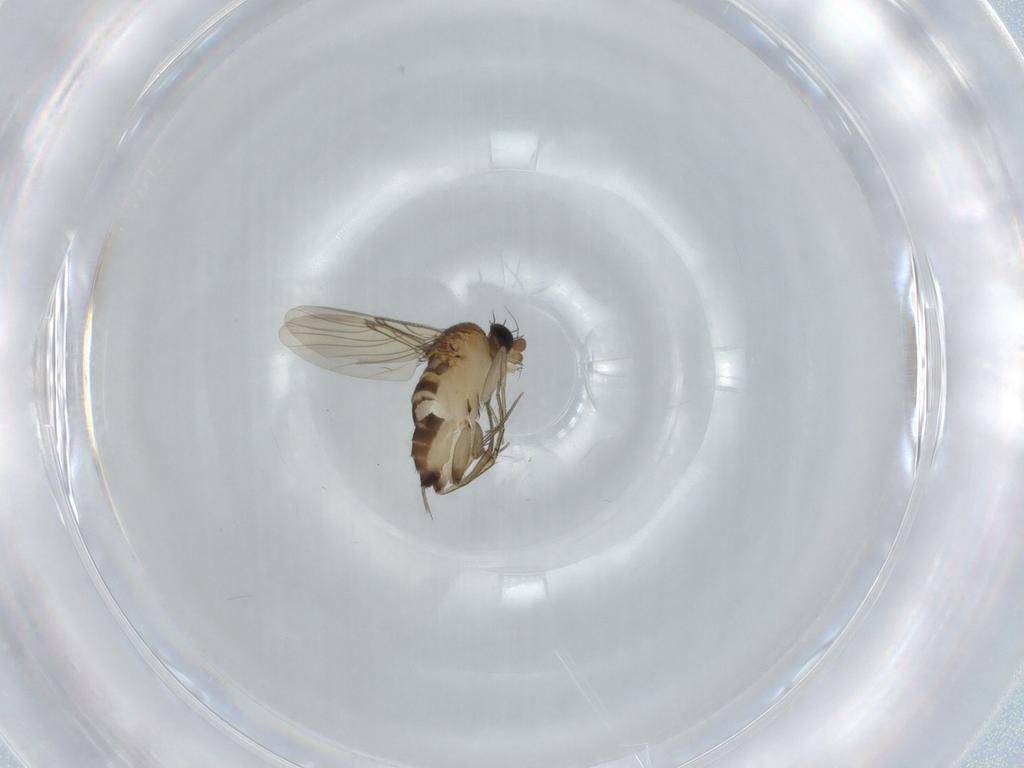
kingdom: Animalia
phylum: Arthropoda
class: Insecta
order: Diptera
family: Phoridae
